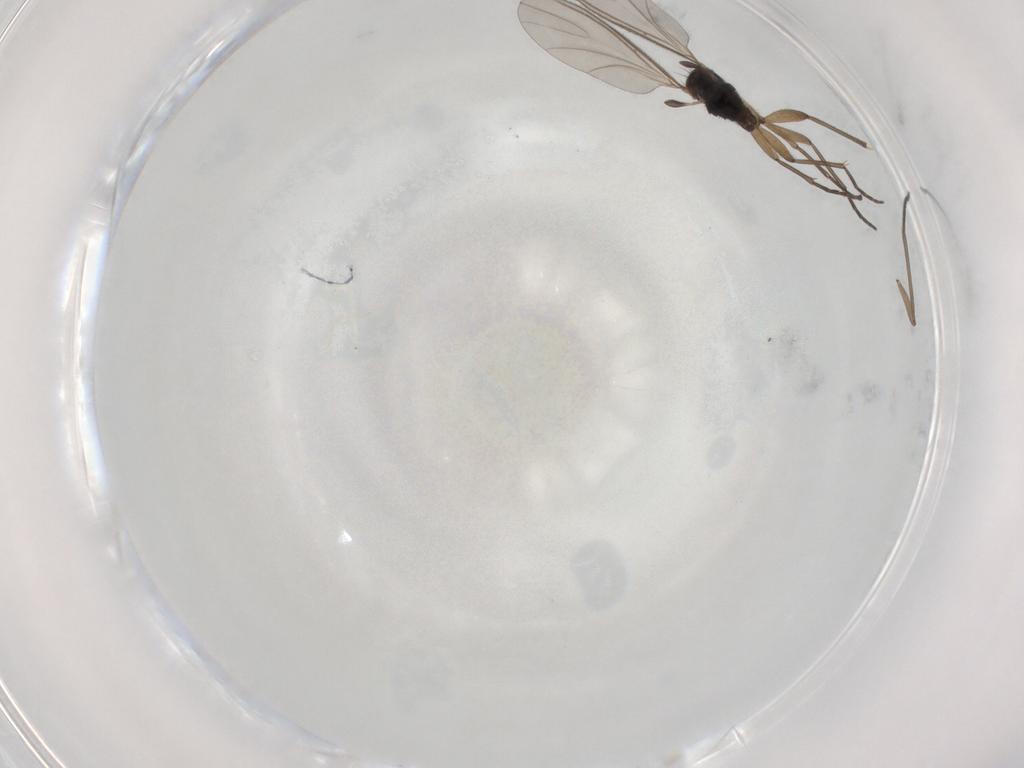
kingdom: Animalia
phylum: Arthropoda
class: Insecta
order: Diptera
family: Sciaridae
